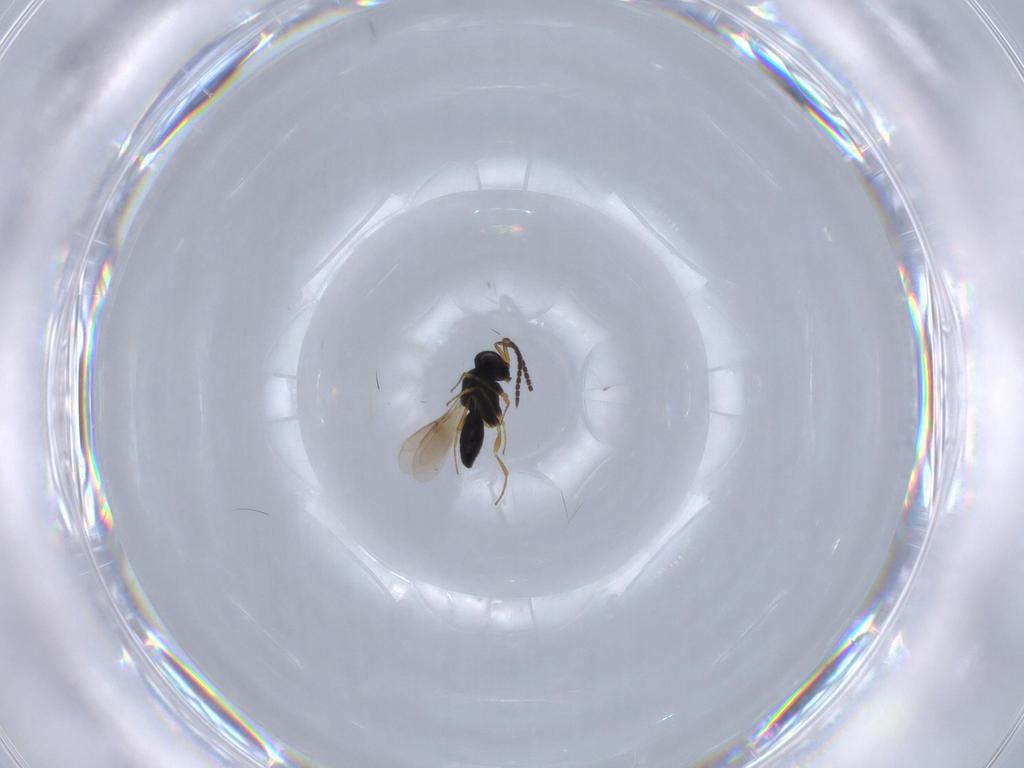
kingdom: Animalia
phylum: Arthropoda
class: Insecta
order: Hymenoptera
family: Scelionidae
